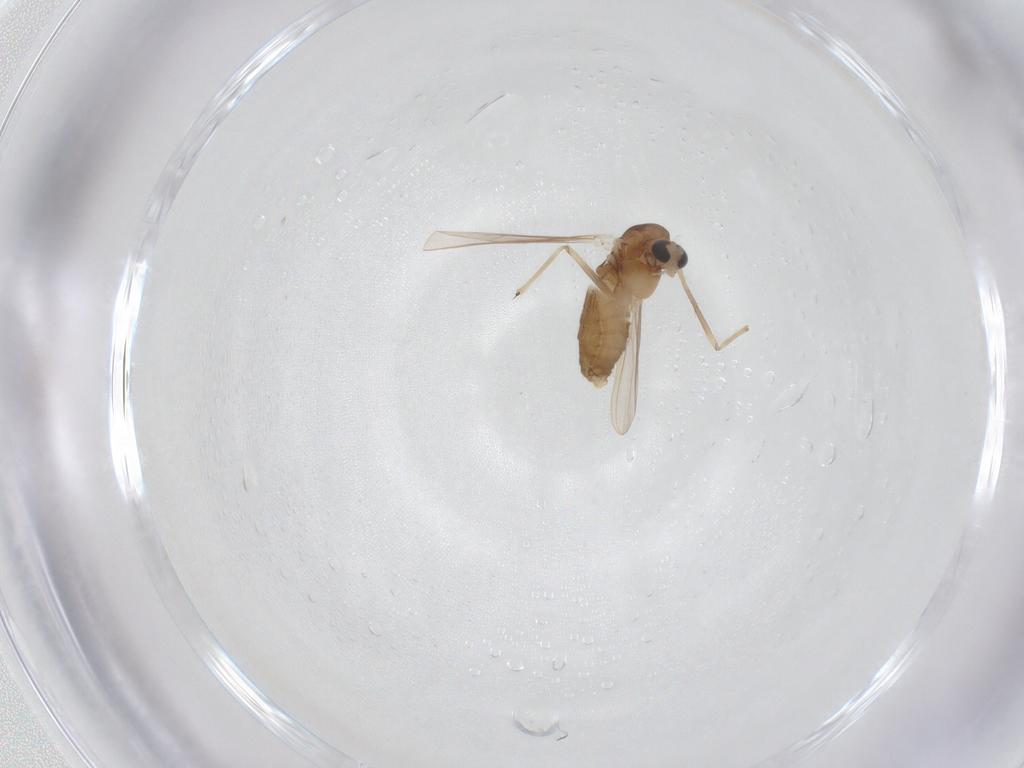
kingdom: Animalia
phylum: Arthropoda
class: Insecta
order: Diptera
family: Chironomidae
